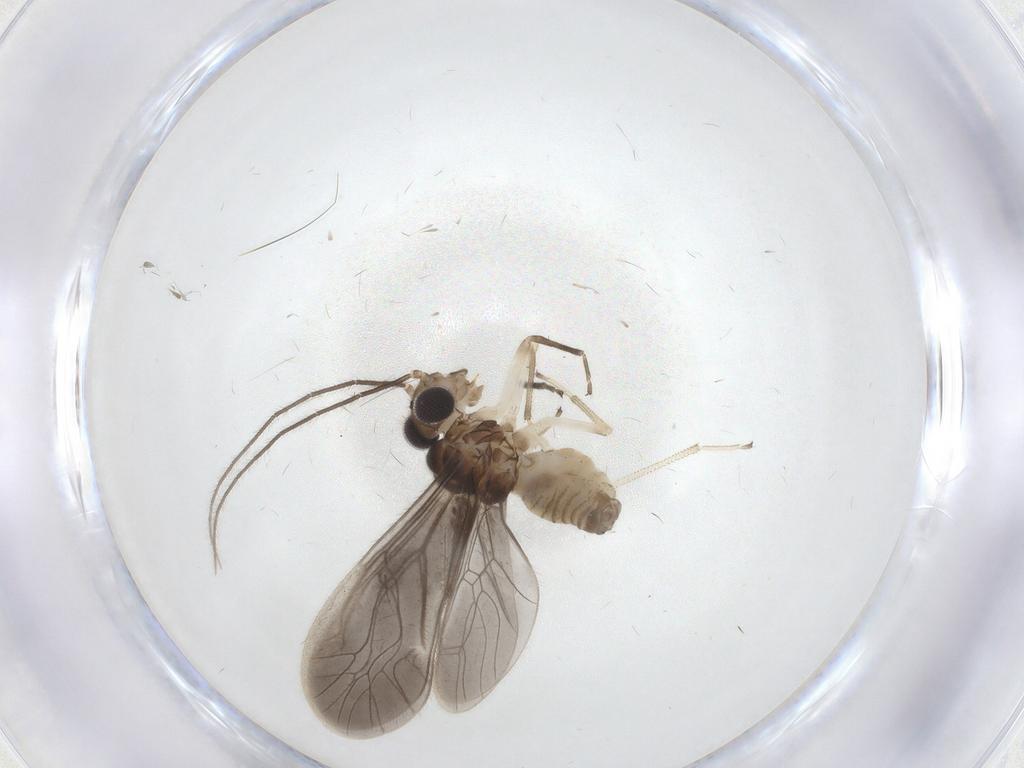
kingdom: Animalia
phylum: Arthropoda
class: Insecta
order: Psocodea
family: Caeciliusidae
